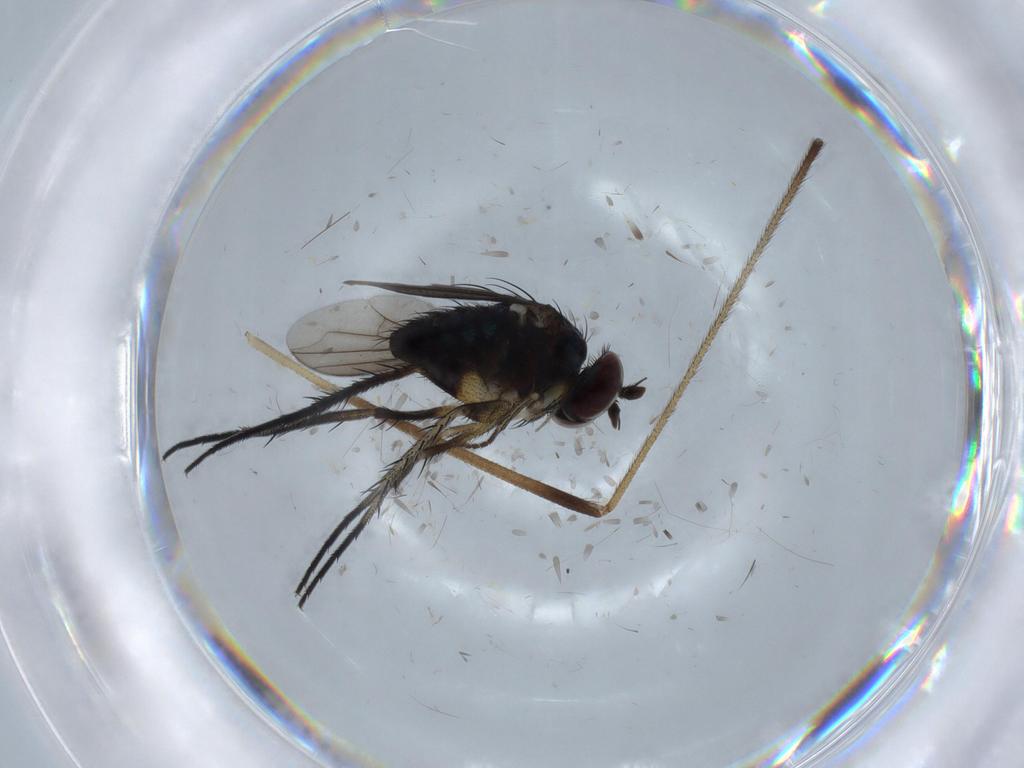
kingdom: Animalia
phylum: Arthropoda
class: Insecta
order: Diptera
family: Dolichopodidae
